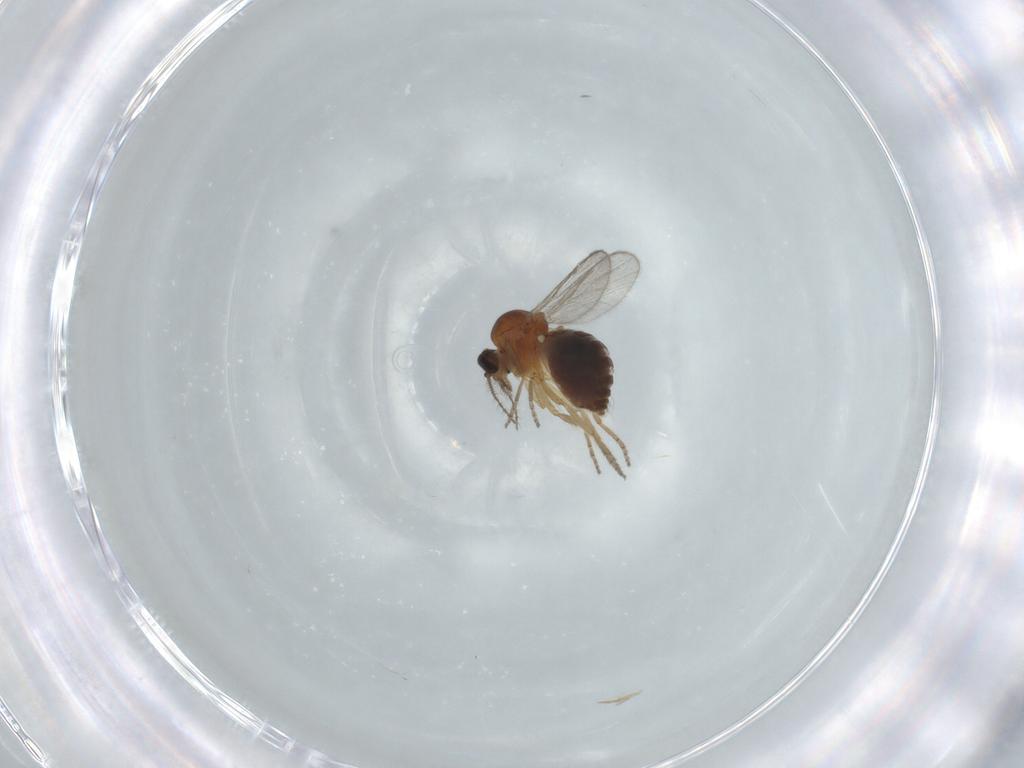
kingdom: Animalia
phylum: Arthropoda
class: Insecta
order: Diptera
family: Ceratopogonidae
